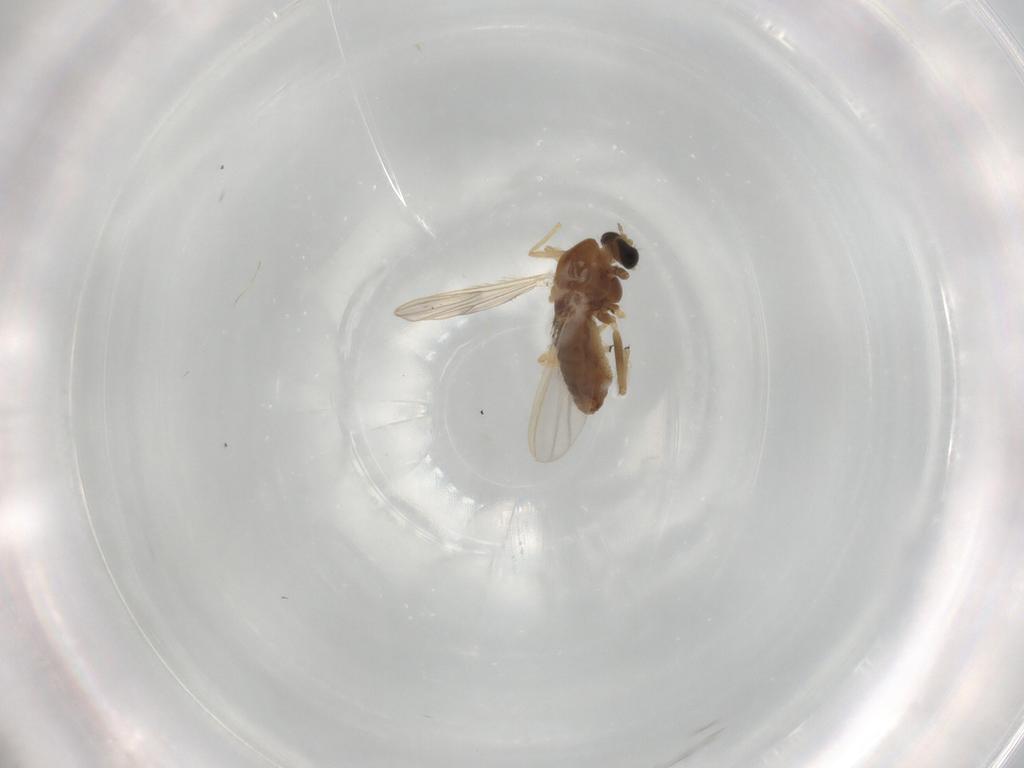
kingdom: Animalia
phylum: Arthropoda
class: Insecta
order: Diptera
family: Chironomidae
